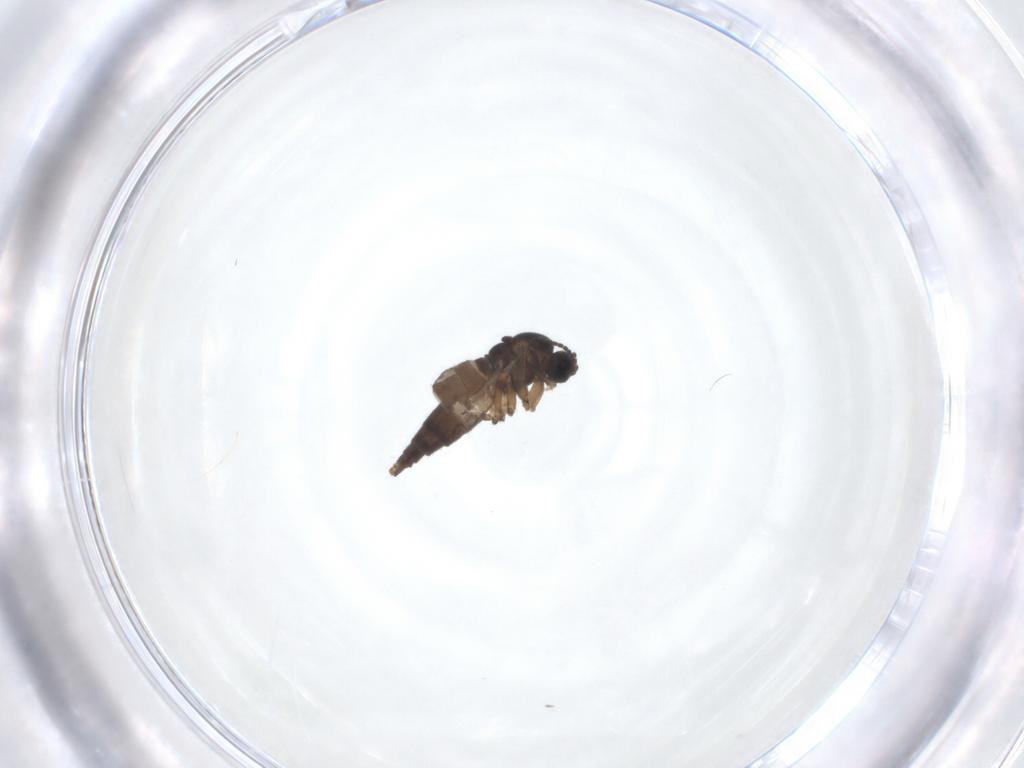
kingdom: Animalia
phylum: Arthropoda
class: Insecta
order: Diptera
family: Sciaridae
